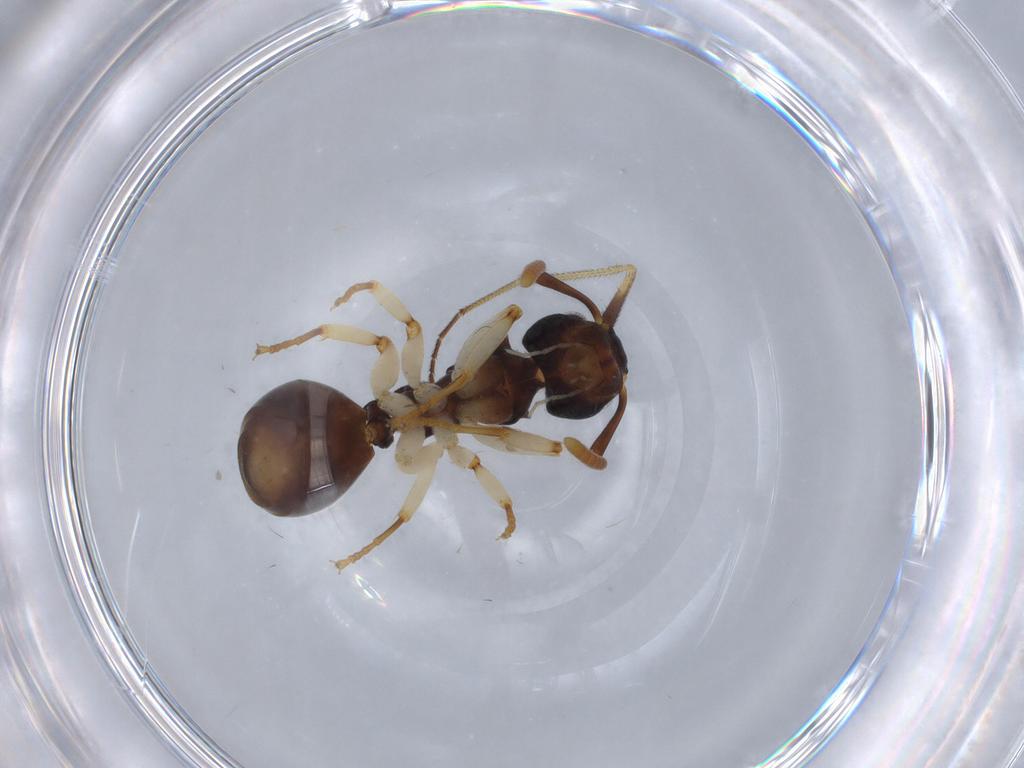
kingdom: Animalia
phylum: Arthropoda
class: Insecta
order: Hymenoptera
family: Formicidae
